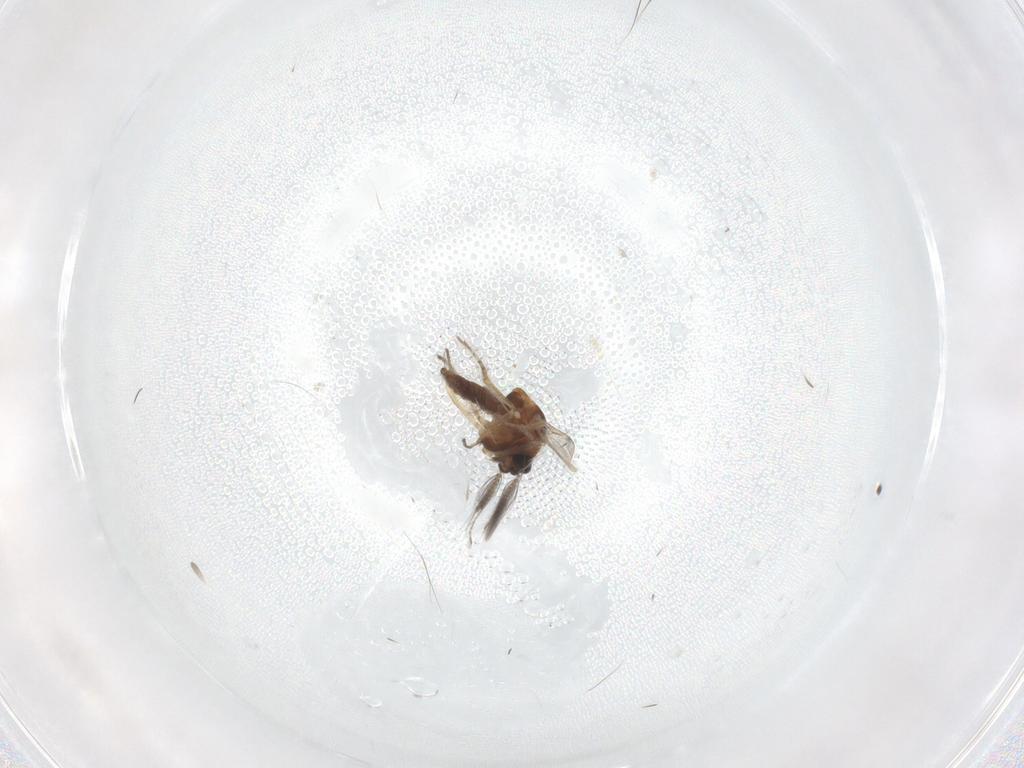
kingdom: Animalia
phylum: Arthropoda
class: Insecta
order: Diptera
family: Ceratopogonidae
